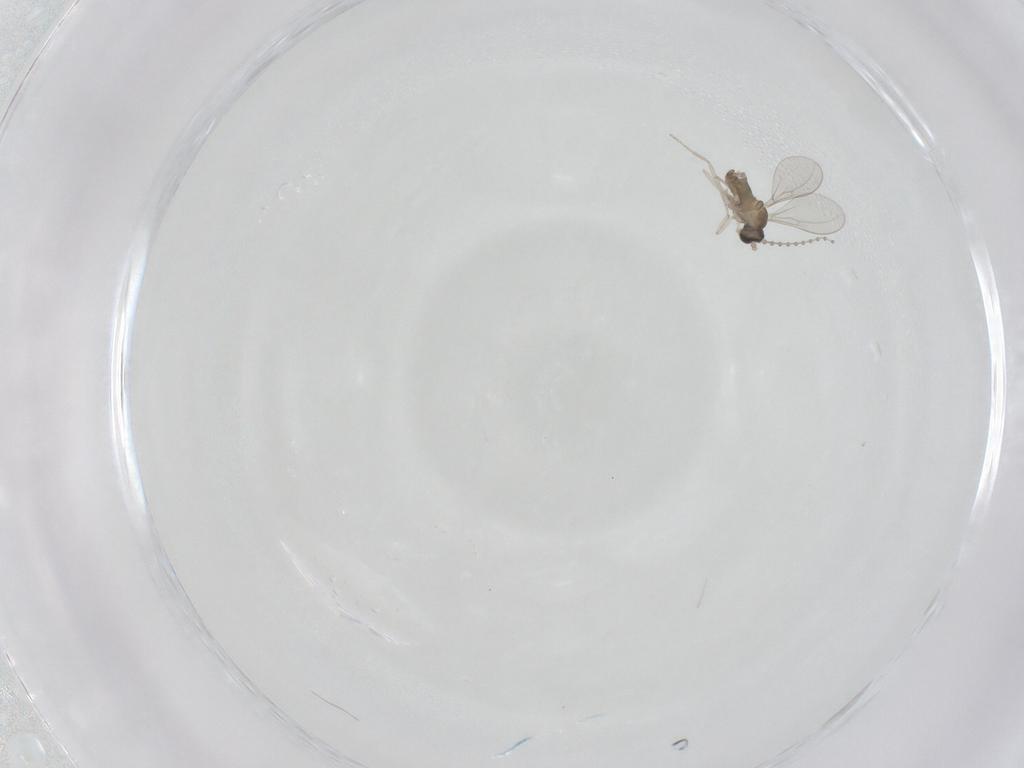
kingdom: Animalia
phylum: Arthropoda
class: Insecta
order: Diptera
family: Cecidomyiidae
